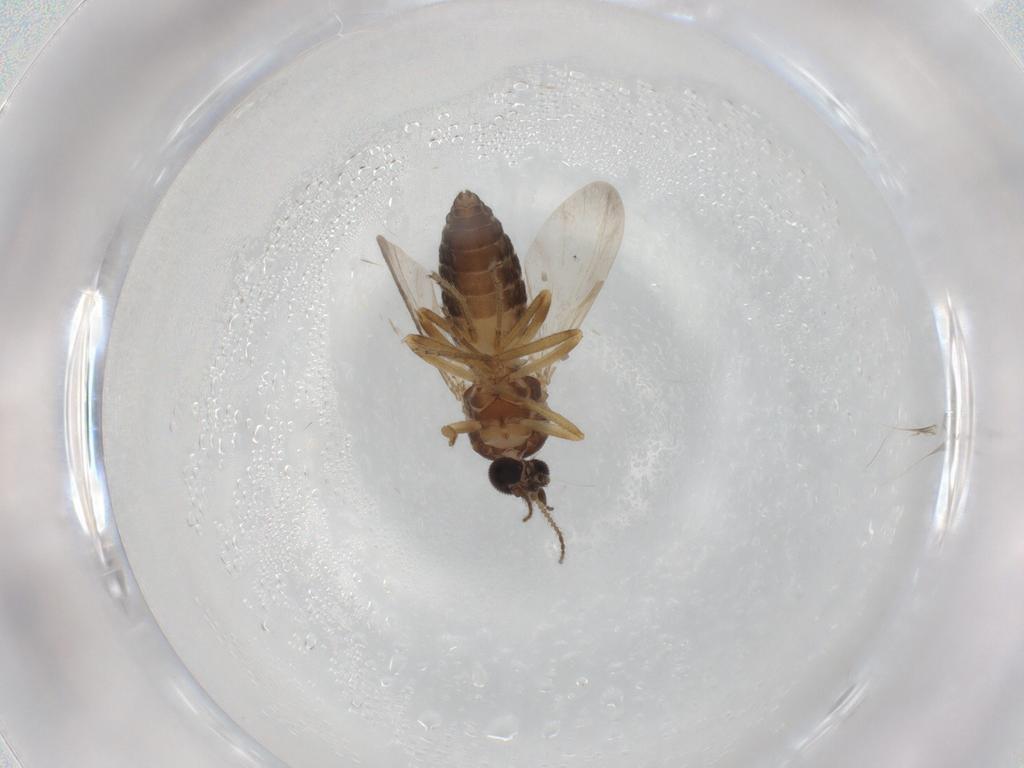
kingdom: Animalia
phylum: Arthropoda
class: Insecta
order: Diptera
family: Ceratopogonidae
